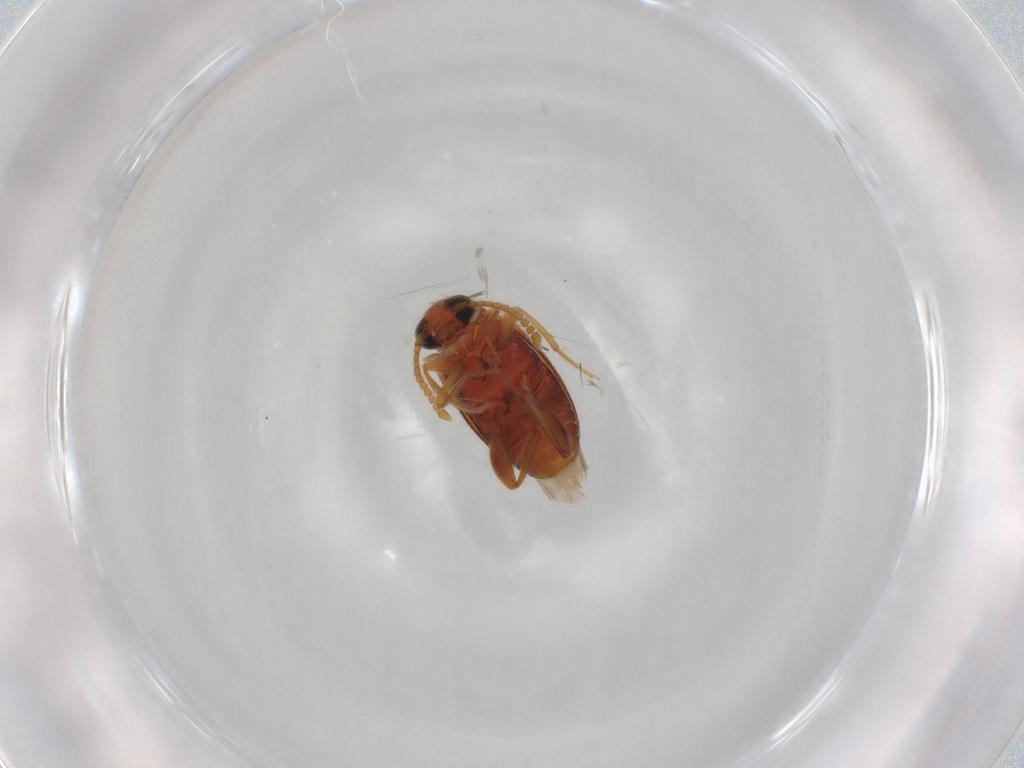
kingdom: Animalia
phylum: Arthropoda
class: Insecta
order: Coleoptera
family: Aderidae
